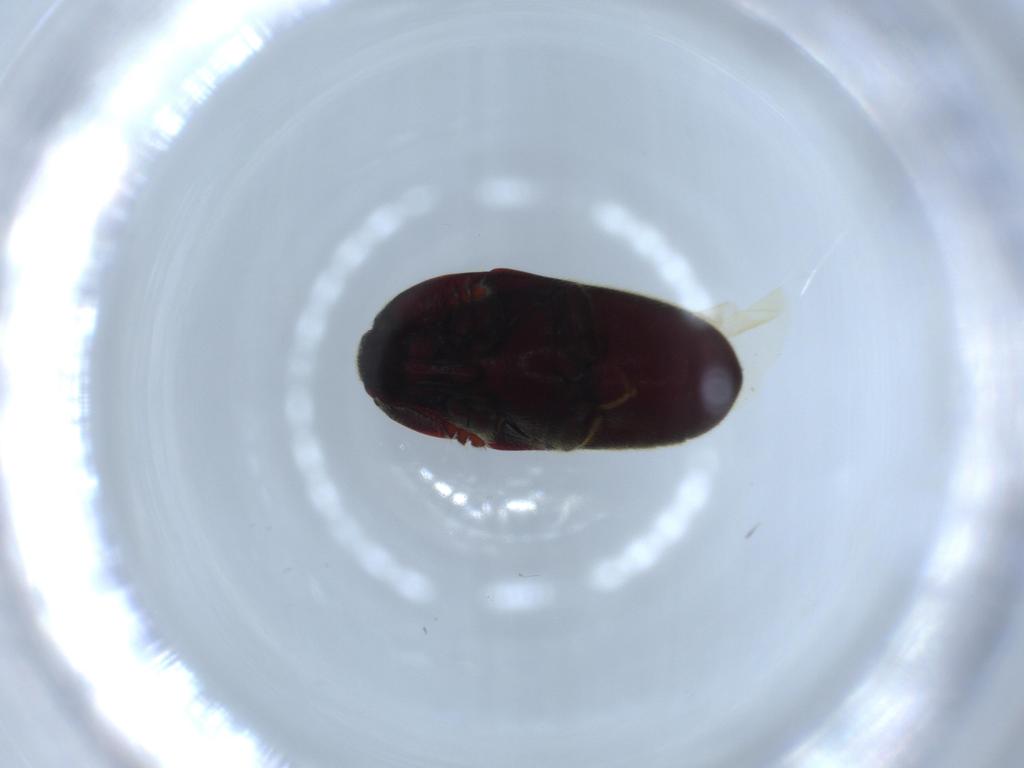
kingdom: Animalia
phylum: Arthropoda
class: Insecta
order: Coleoptera
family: Throscidae
